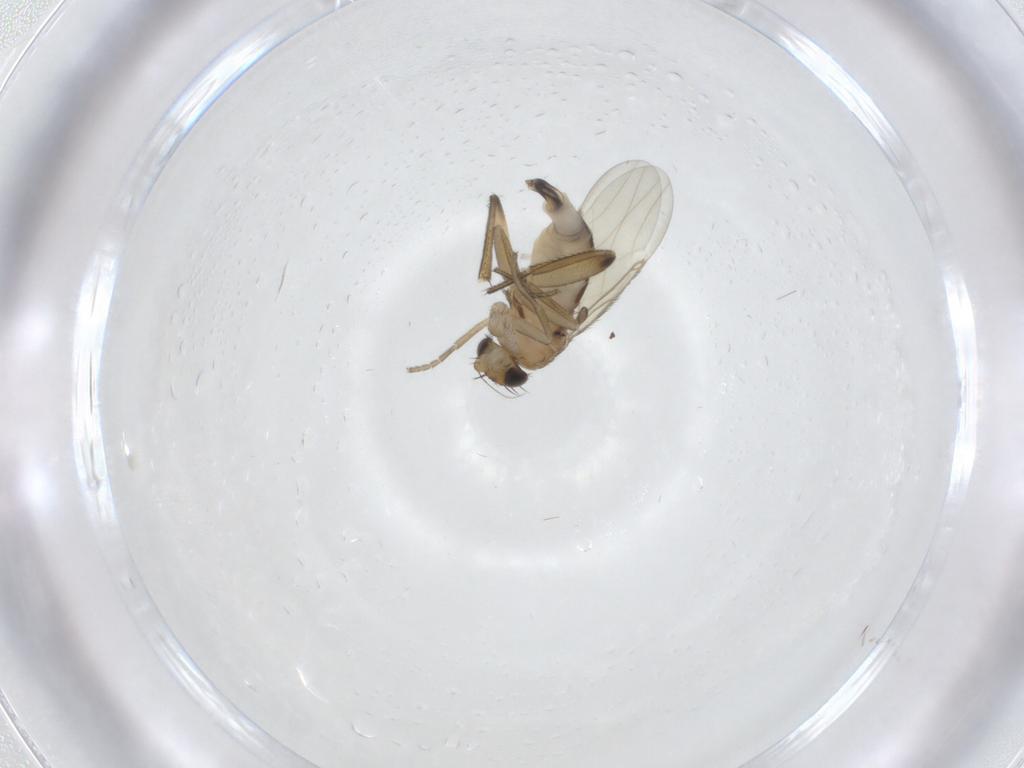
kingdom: Animalia
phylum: Arthropoda
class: Insecta
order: Diptera
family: Phoridae
